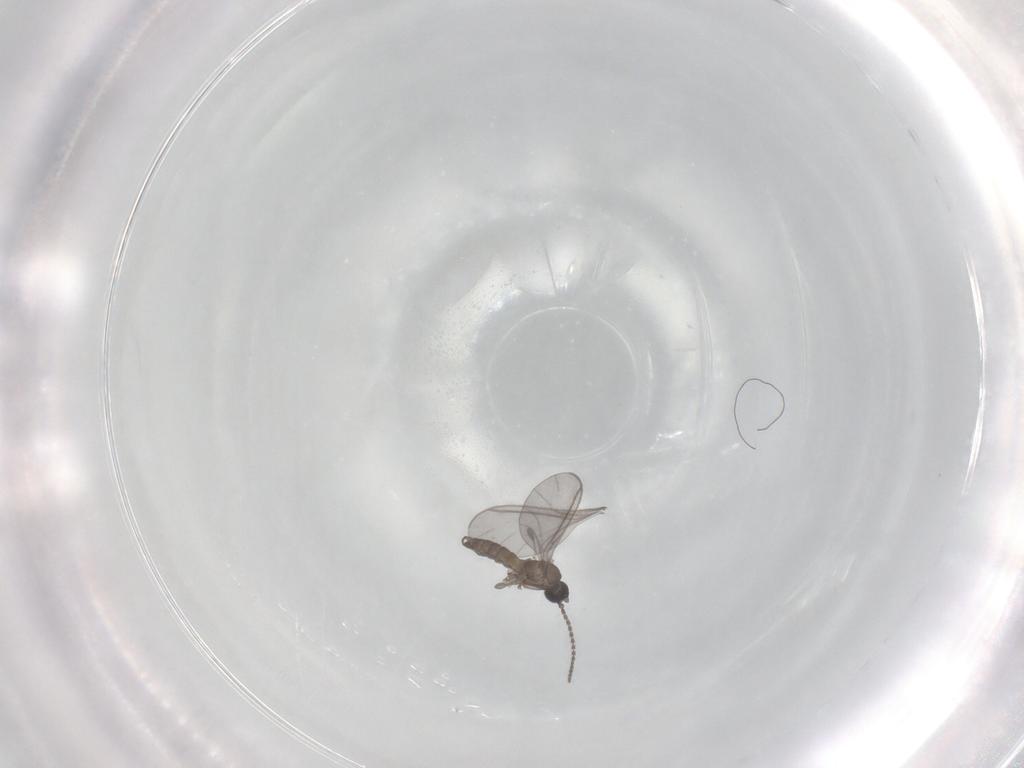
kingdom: Animalia
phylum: Arthropoda
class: Insecta
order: Diptera
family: Sciaridae
